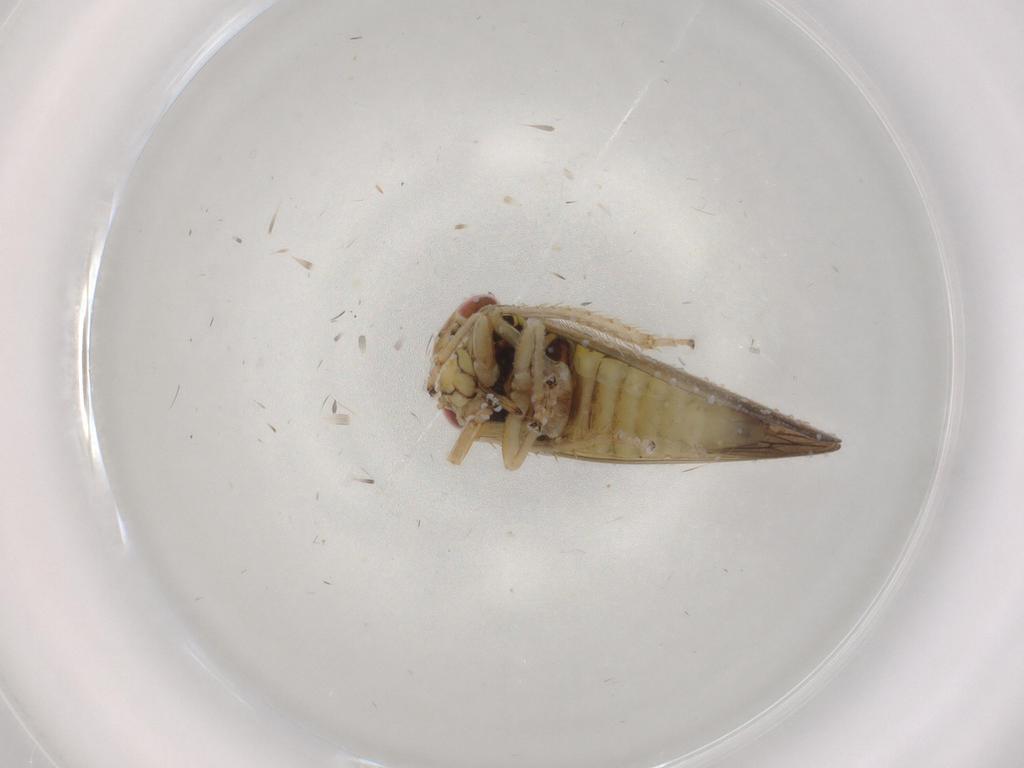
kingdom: Animalia
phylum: Arthropoda
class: Insecta
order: Hemiptera
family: Cicadellidae
